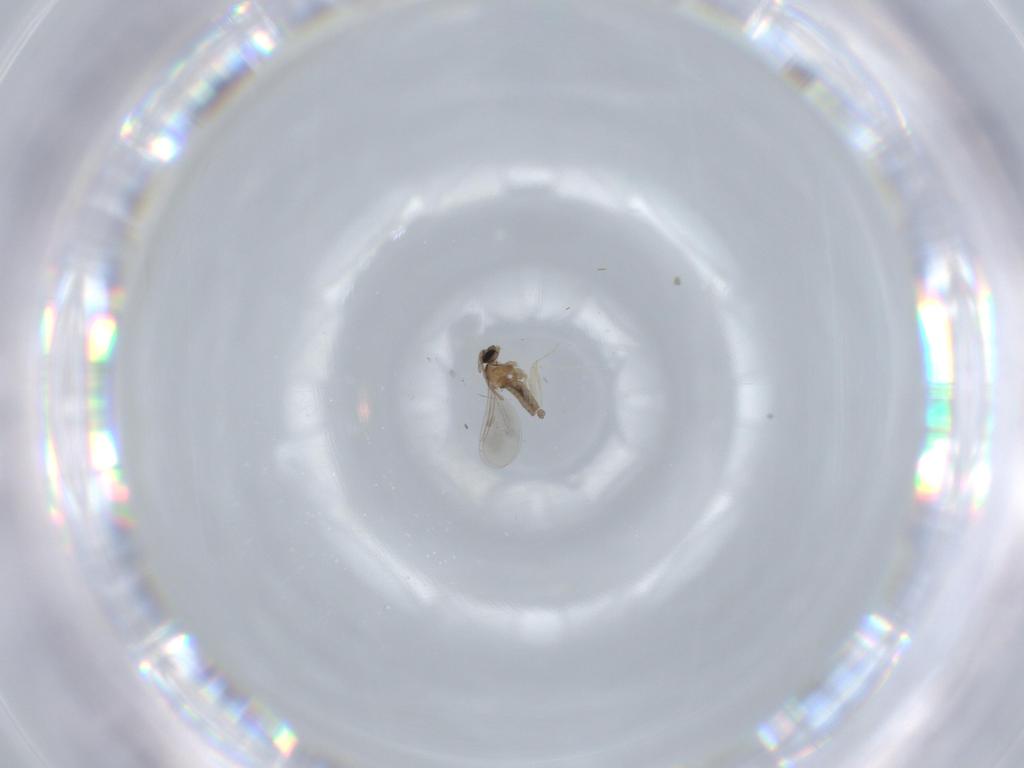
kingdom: Animalia
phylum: Arthropoda
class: Insecta
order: Diptera
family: Cecidomyiidae
